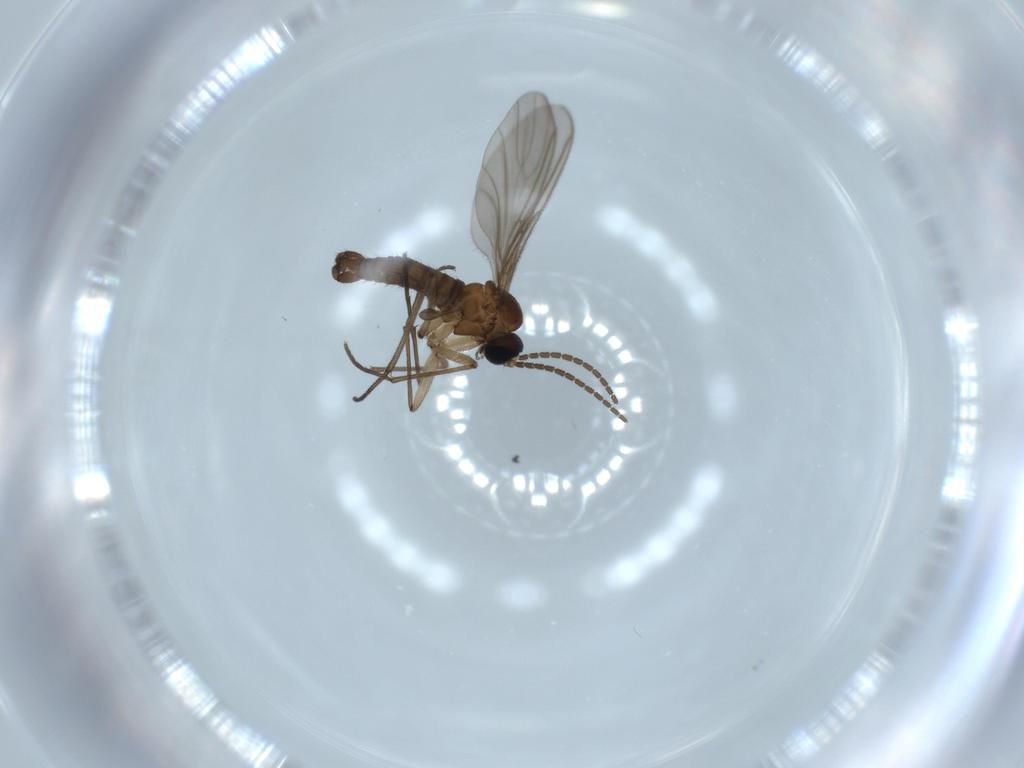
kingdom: Animalia
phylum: Arthropoda
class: Insecta
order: Diptera
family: Sciaridae
